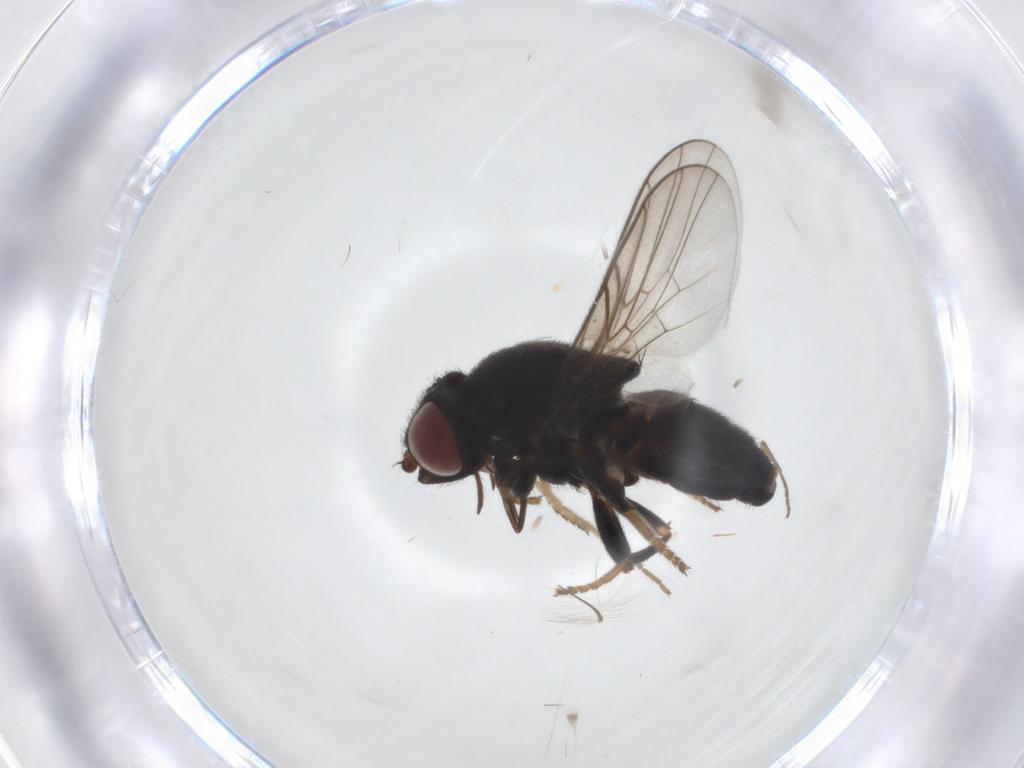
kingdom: Animalia
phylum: Arthropoda
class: Insecta
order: Diptera
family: Chloropidae
